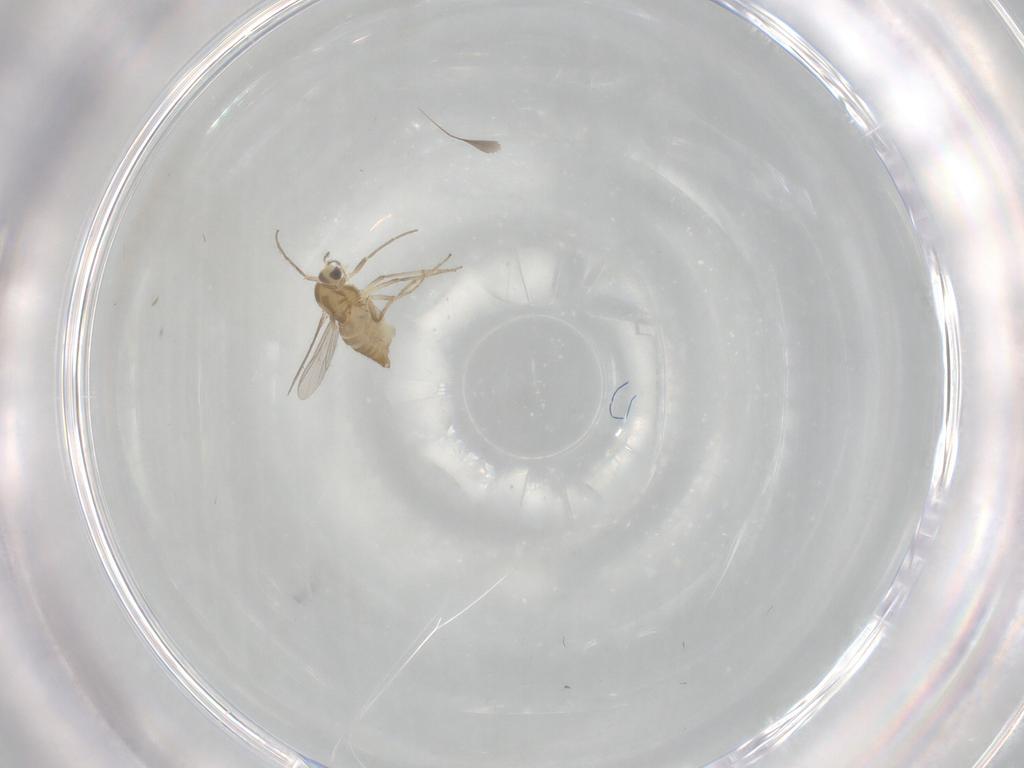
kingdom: Animalia
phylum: Arthropoda
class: Insecta
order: Diptera
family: Chironomidae
